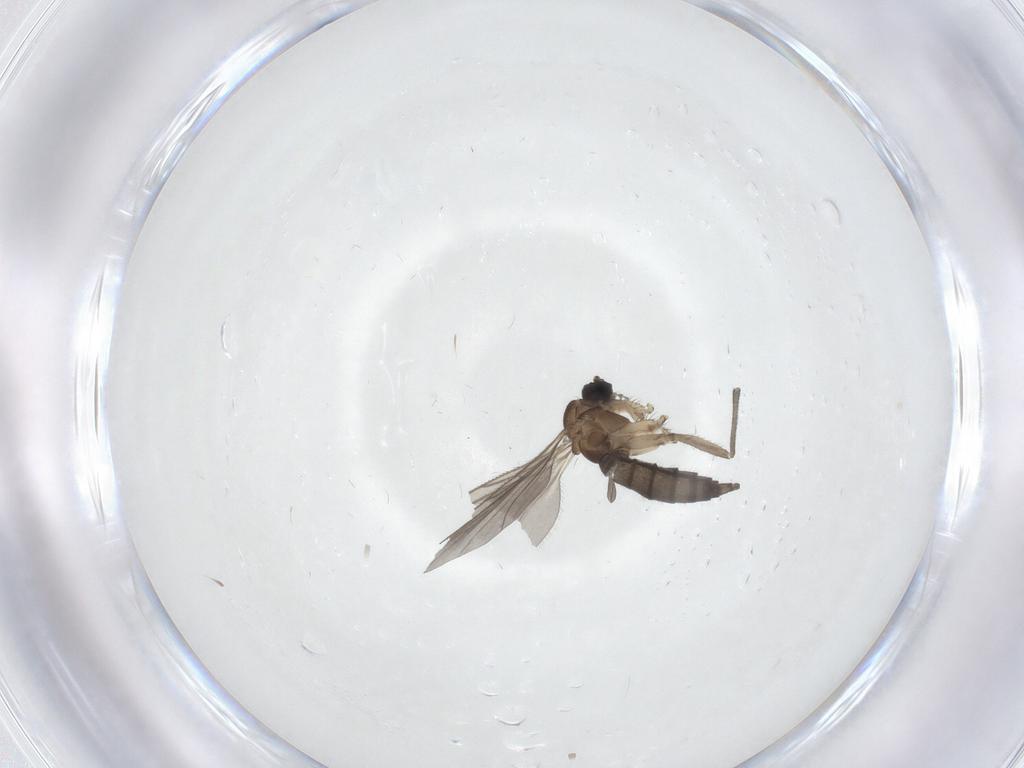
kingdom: Animalia
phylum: Arthropoda
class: Insecta
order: Diptera
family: Sciaridae
